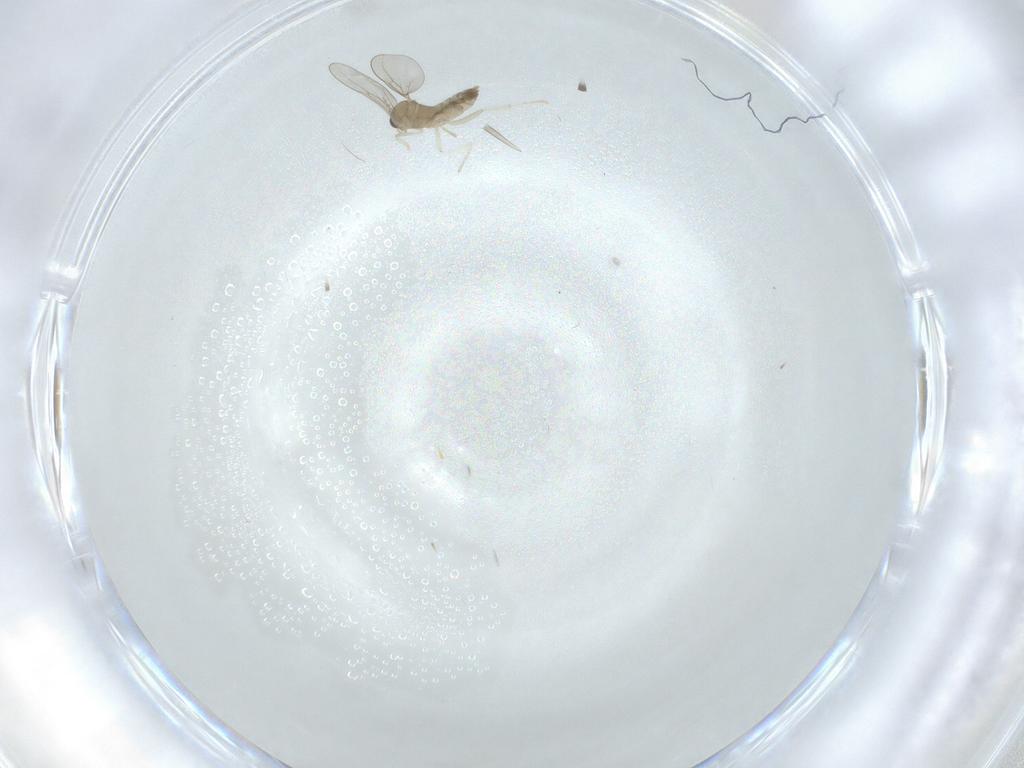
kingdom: Animalia
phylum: Arthropoda
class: Insecta
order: Diptera
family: Cecidomyiidae
